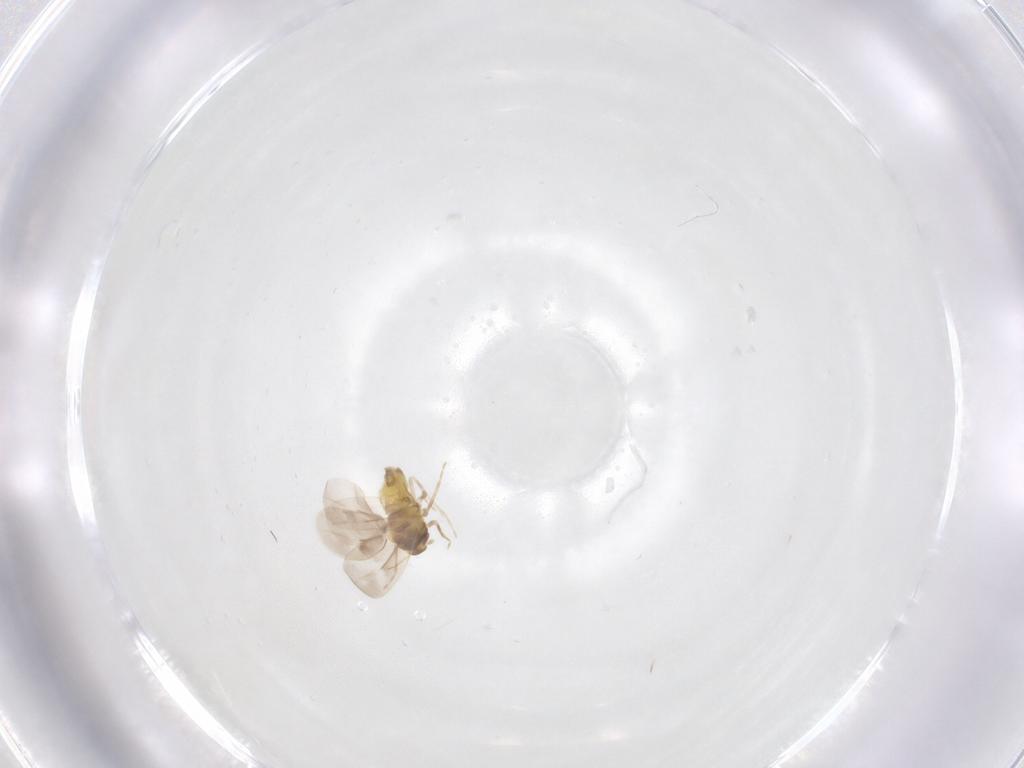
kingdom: Animalia
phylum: Arthropoda
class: Insecta
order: Hemiptera
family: Aleyrodidae
